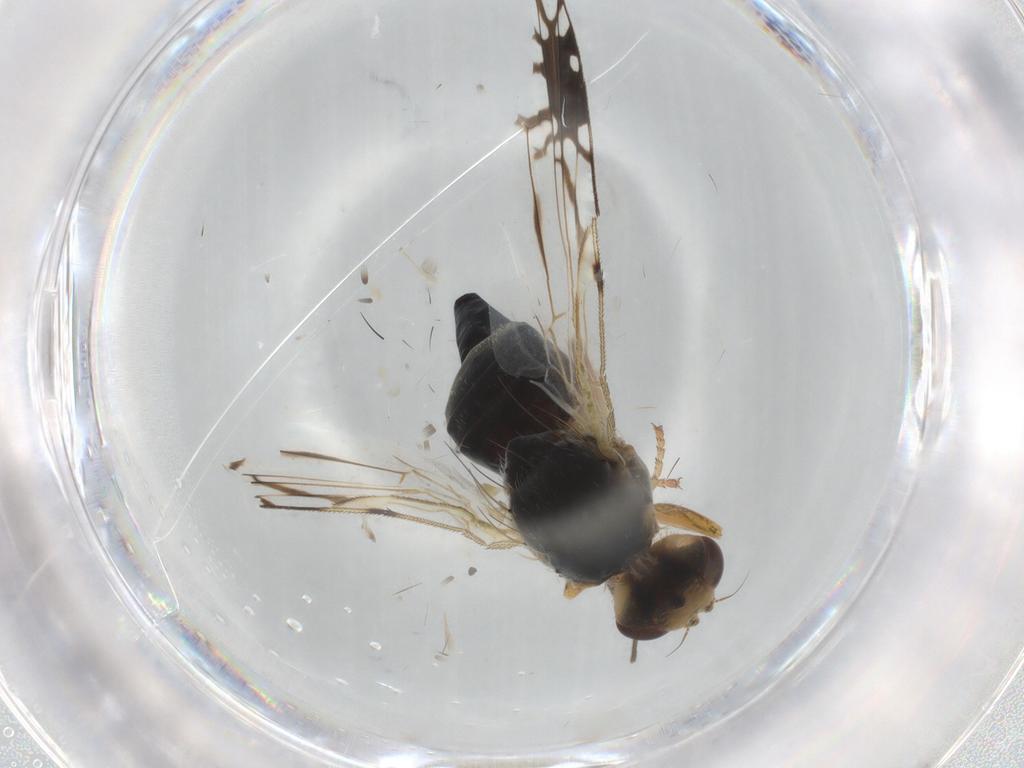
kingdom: Animalia
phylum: Arthropoda
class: Insecta
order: Diptera
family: Tephritidae
